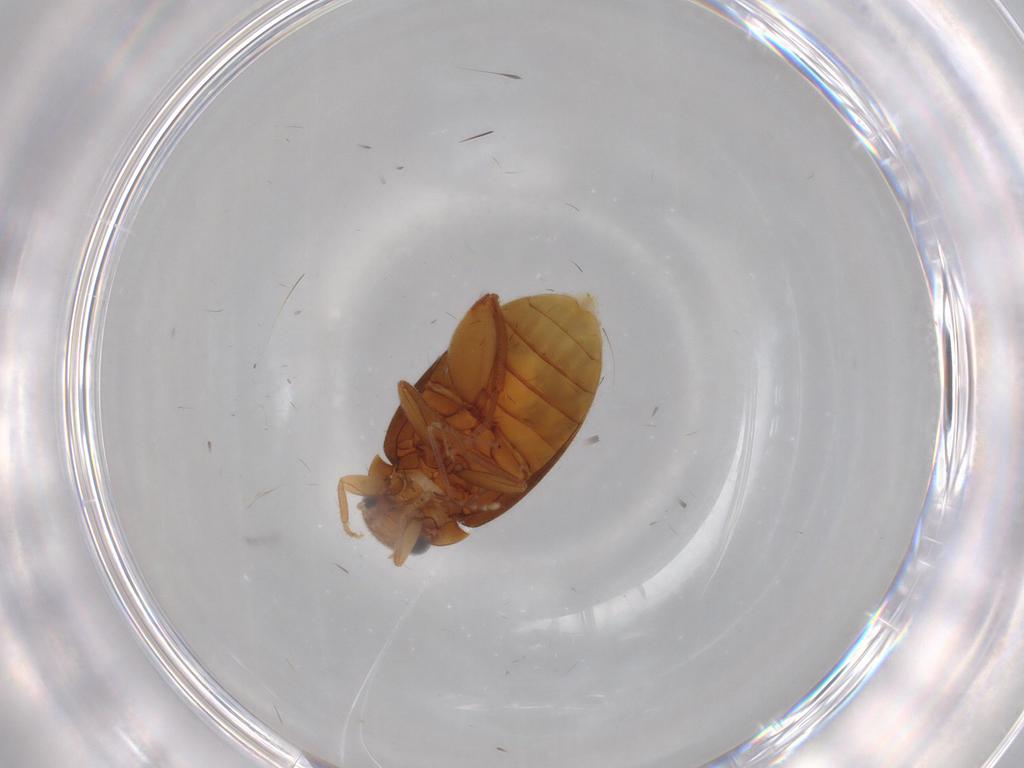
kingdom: Animalia
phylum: Arthropoda
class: Insecta
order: Coleoptera
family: Scirtidae
